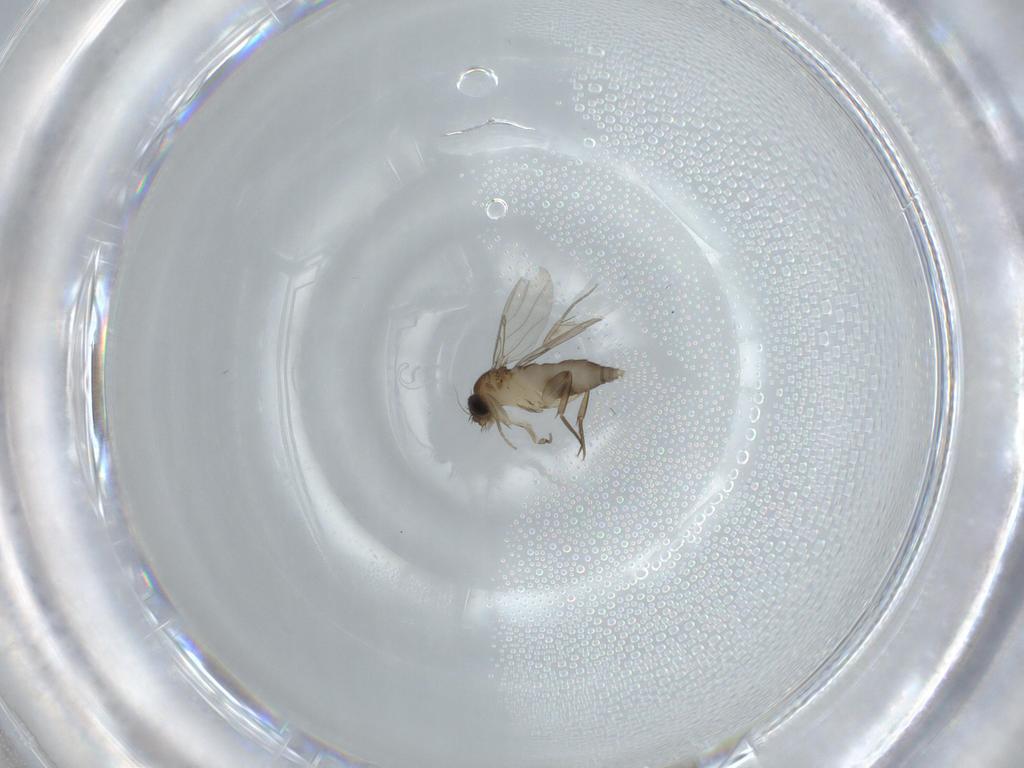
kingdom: Animalia
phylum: Arthropoda
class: Insecta
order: Diptera
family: Phoridae
